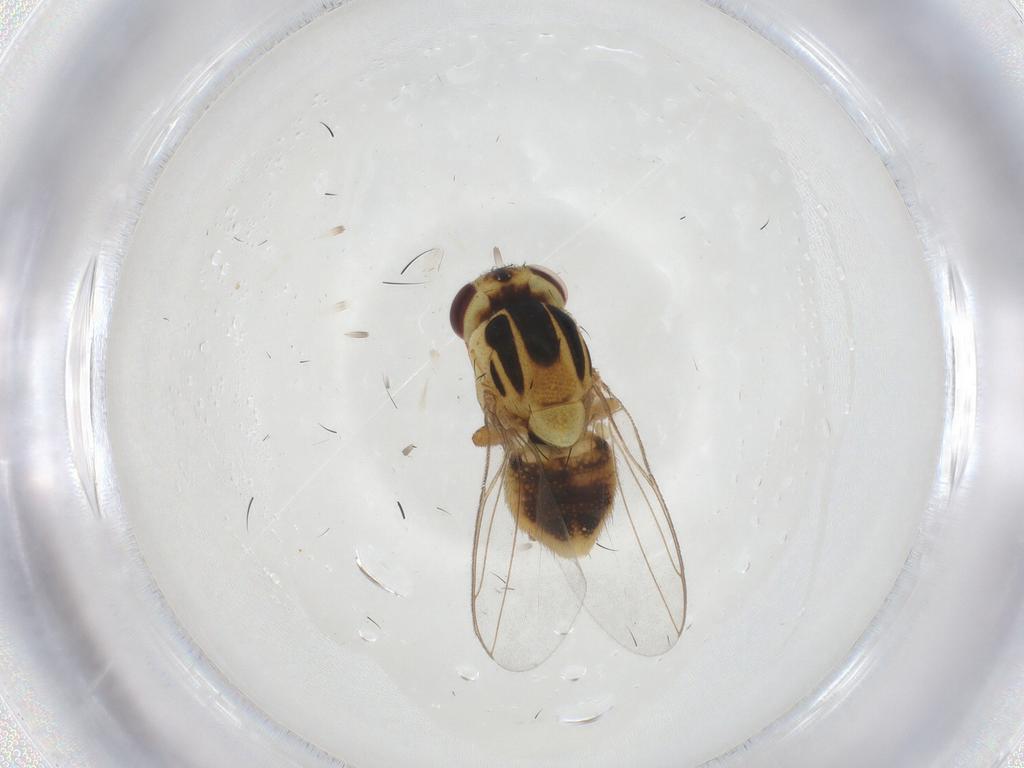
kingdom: Animalia
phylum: Arthropoda
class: Insecta
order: Diptera
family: Chloropidae
